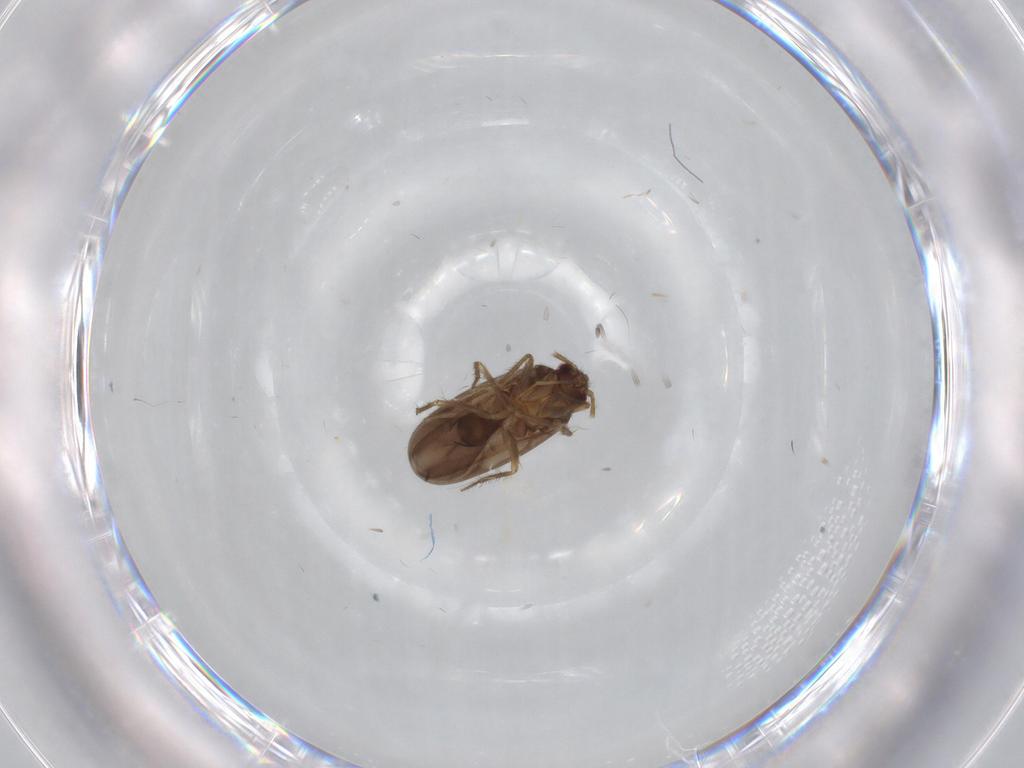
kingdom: Animalia
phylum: Arthropoda
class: Insecta
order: Hemiptera
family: Ceratocombidae
